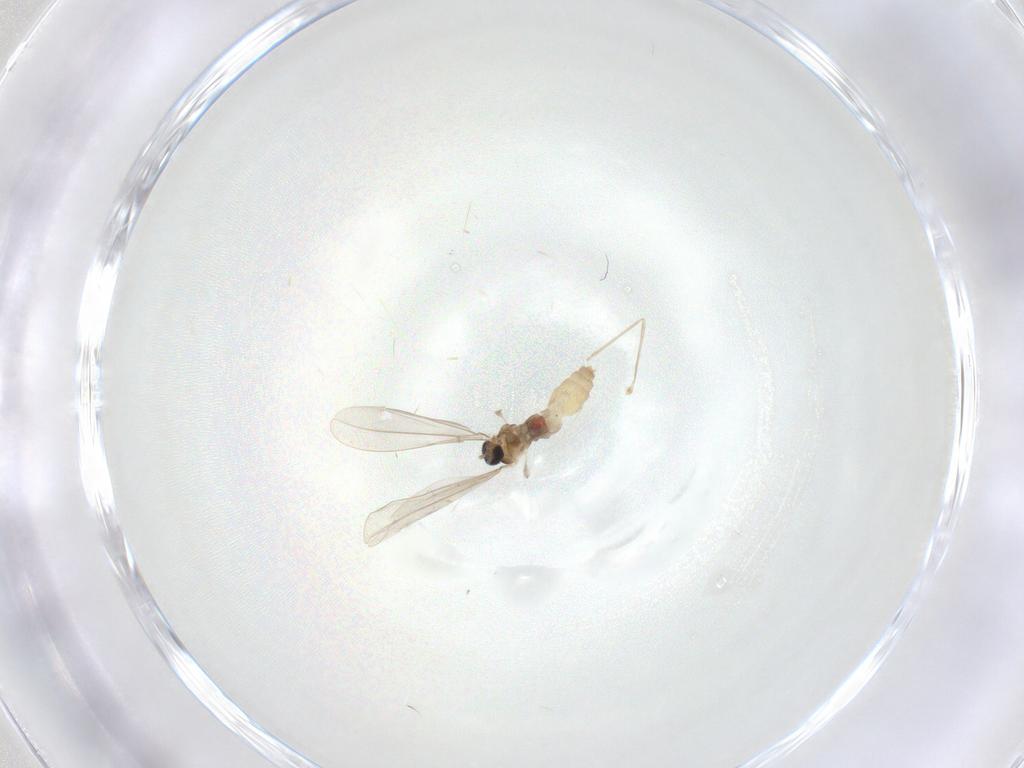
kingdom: Animalia
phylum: Arthropoda
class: Insecta
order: Diptera
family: Cecidomyiidae
